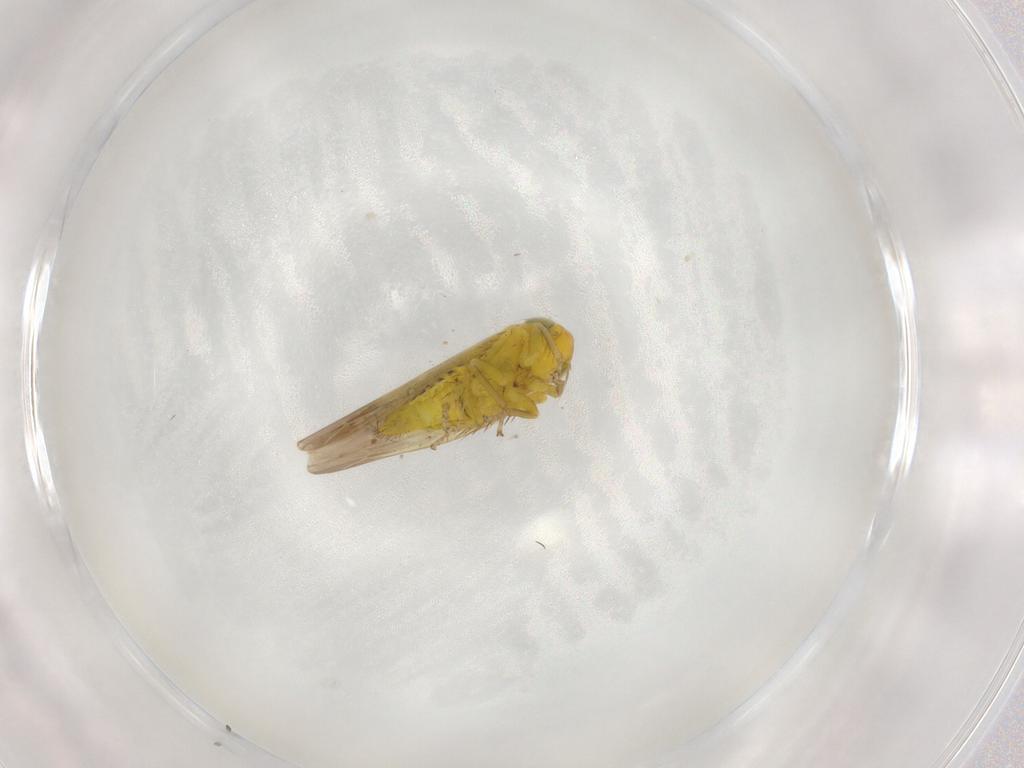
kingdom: Animalia
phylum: Arthropoda
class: Insecta
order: Hemiptera
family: Cicadellidae
